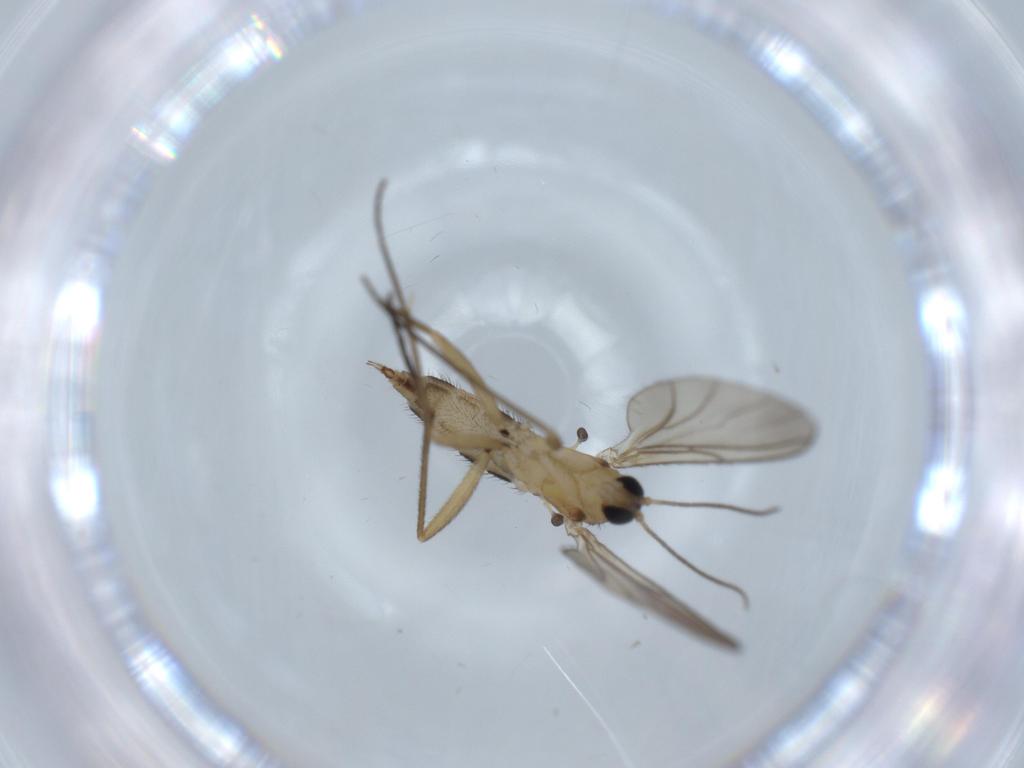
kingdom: Animalia
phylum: Arthropoda
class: Insecta
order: Diptera
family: Sciaridae
